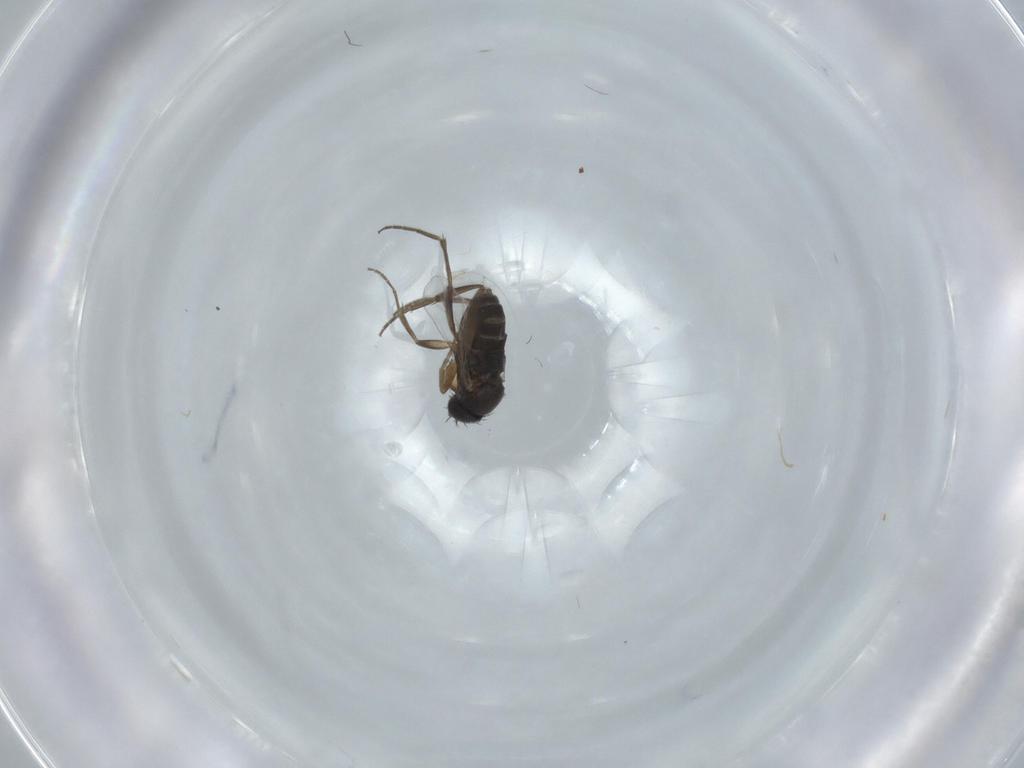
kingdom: Animalia
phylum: Arthropoda
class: Insecta
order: Diptera
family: Phoridae
